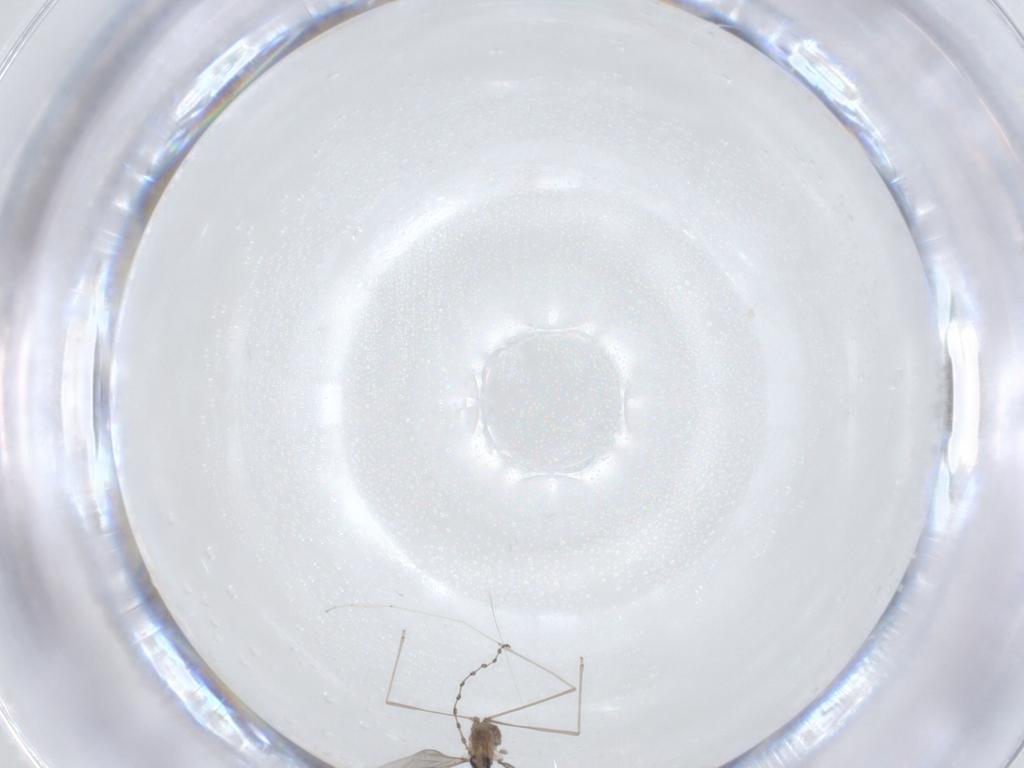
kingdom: Animalia
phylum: Arthropoda
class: Insecta
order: Diptera
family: Cecidomyiidae
